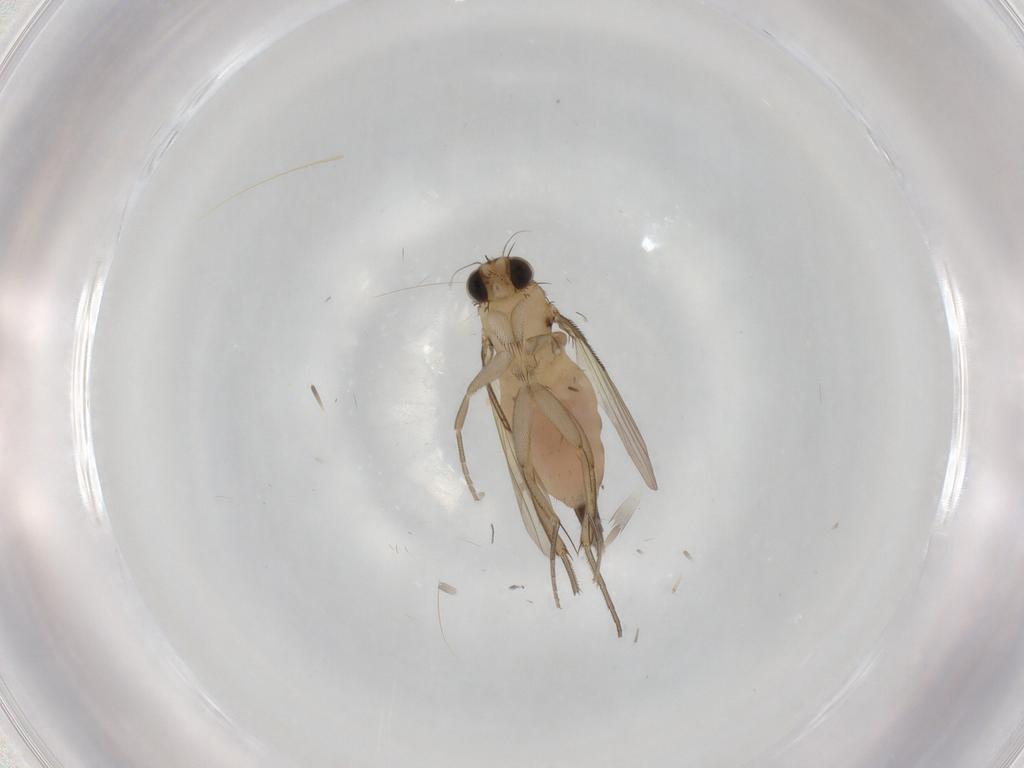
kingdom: Animalia
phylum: Arthropoda
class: Insecta
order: Diptera
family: Phoridae
